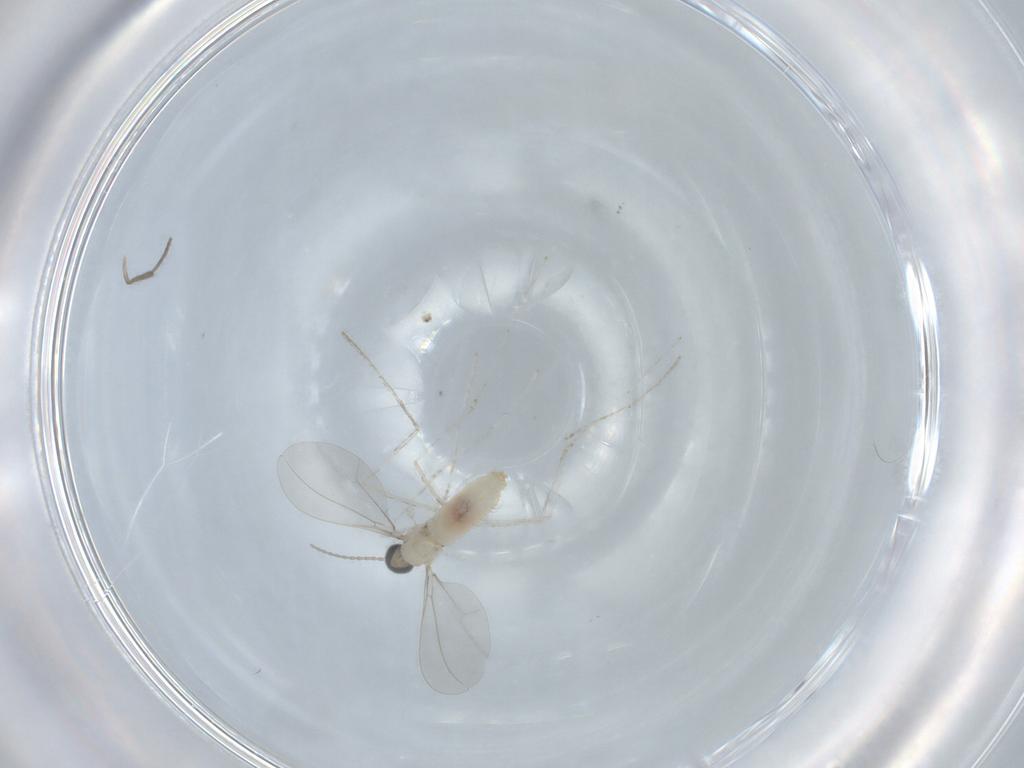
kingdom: Animalia
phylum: Arthropoda
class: Insecta
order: Diptera
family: Cecidomyiidae
